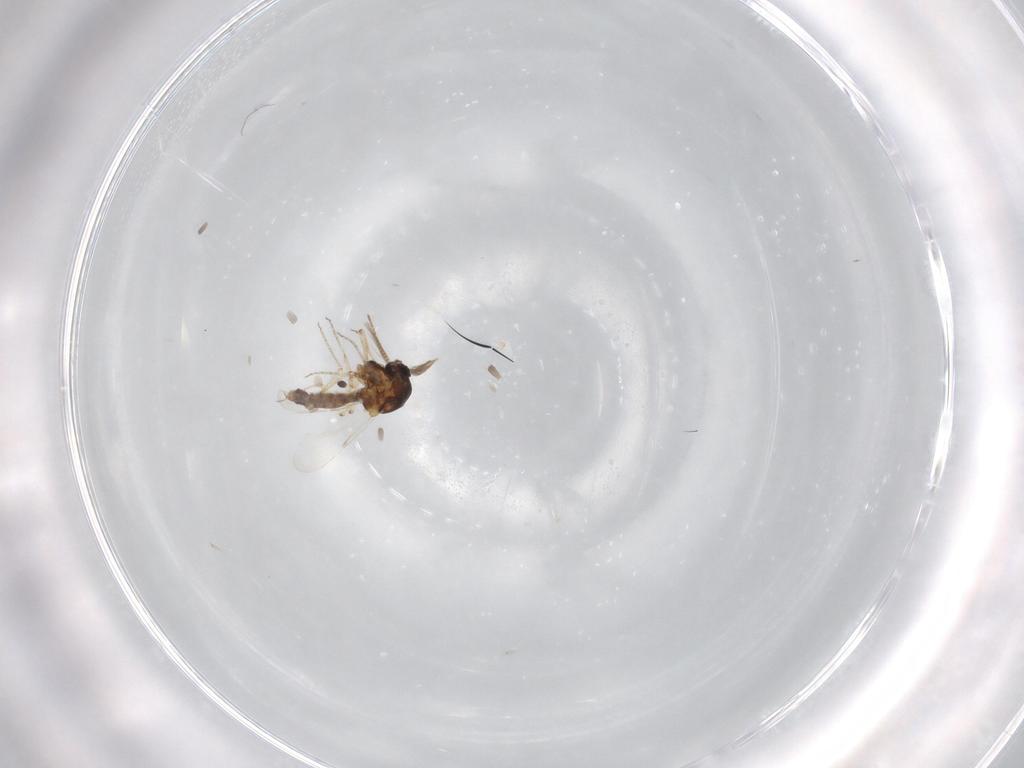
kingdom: Animalia
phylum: Arthropoda
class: Insecta
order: Diptera
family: Ceratopogonidae
